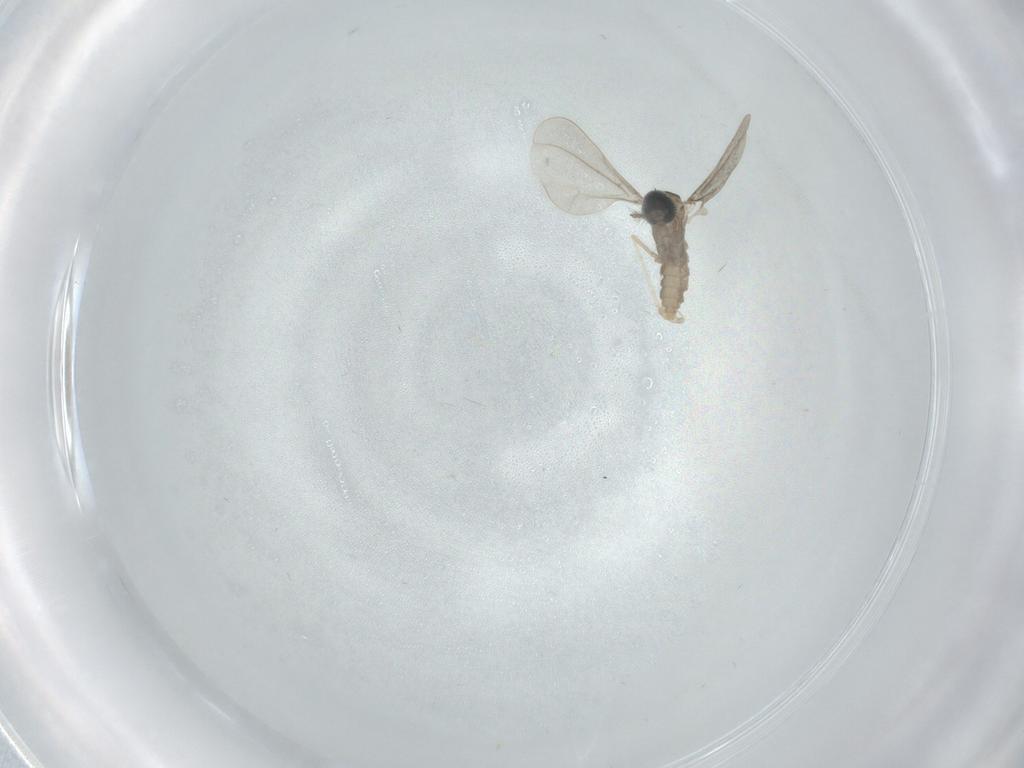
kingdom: Animalia
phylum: Arthropoda
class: Insecta
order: Diptera
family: Cecidomyiidae
